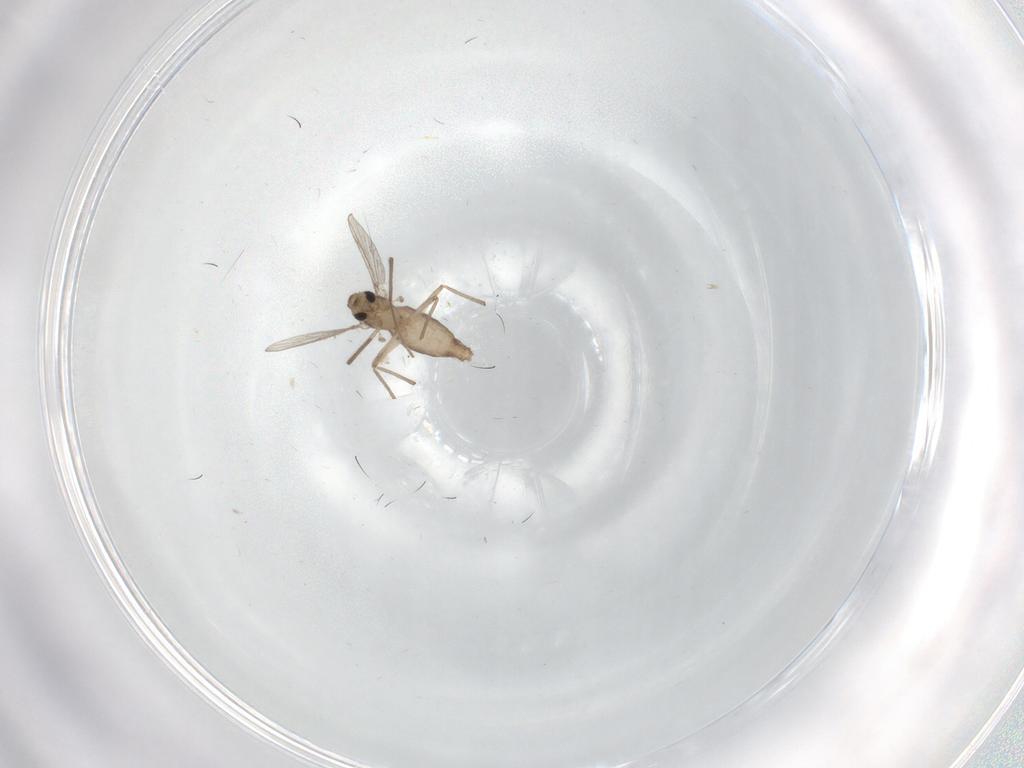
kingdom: Animalia
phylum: Arthropoda
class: Insecta
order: Diptera
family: Chironomidae
